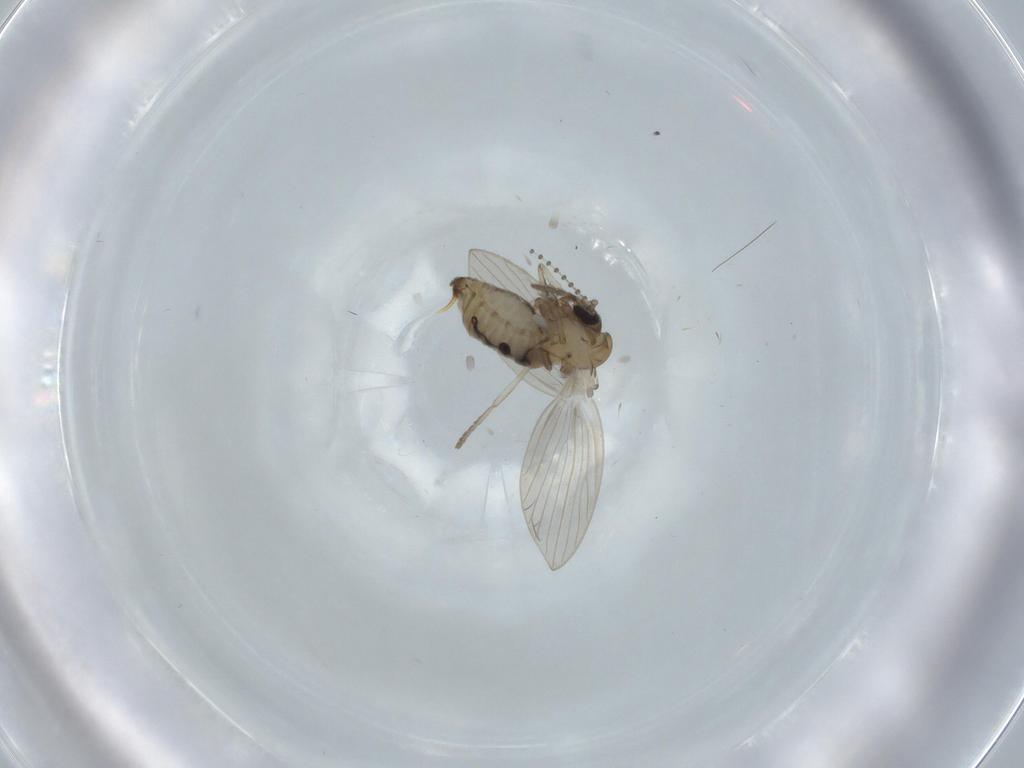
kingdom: Animalia
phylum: Arthropoda
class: Insecta
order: Diptera
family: Psychodidae
